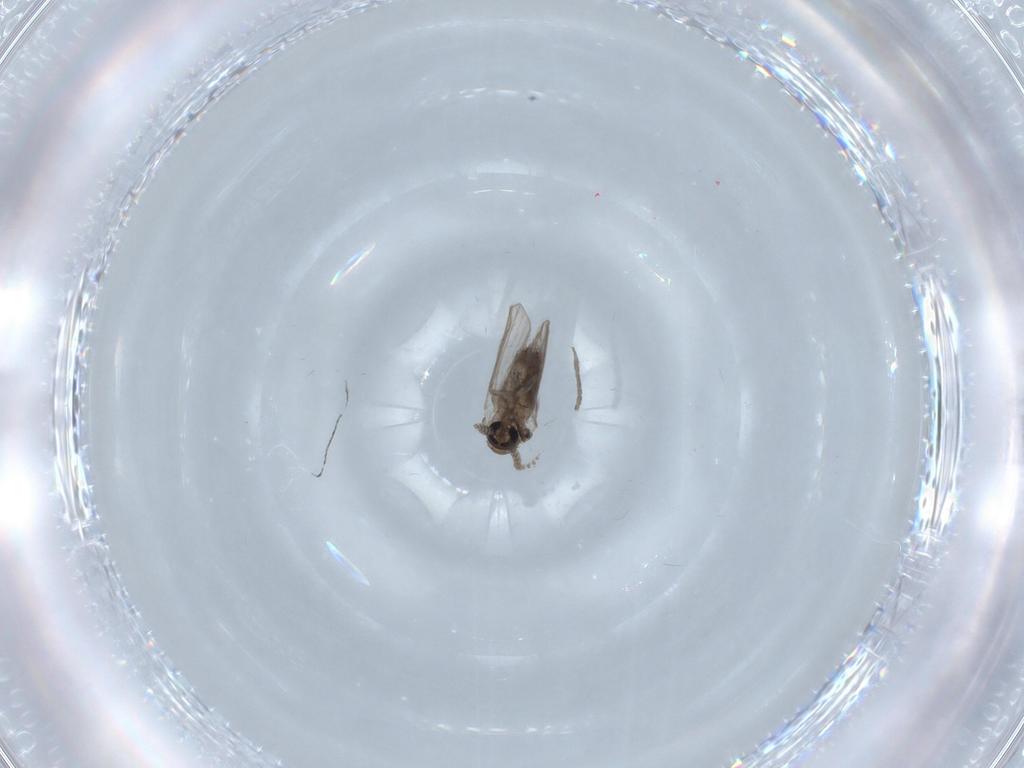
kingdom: Animalia
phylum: Arthropoda
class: Insecta
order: Diptera
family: Psychodidae
